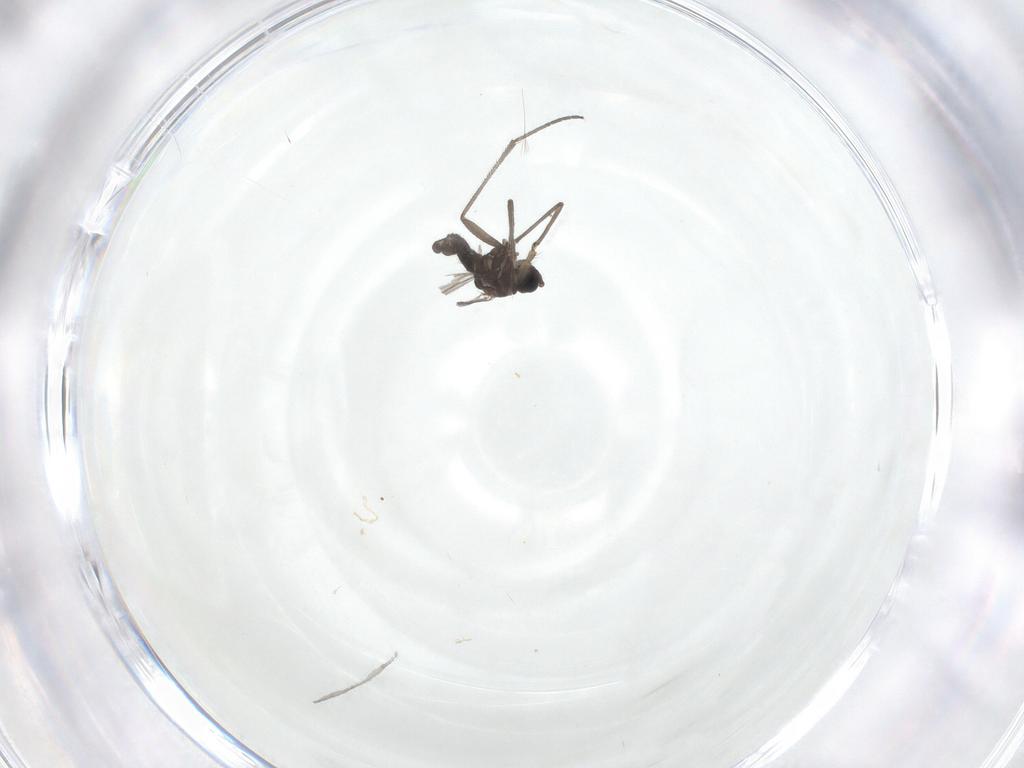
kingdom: Animalia
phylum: Arthropoda
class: Insecta
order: Diptera
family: Sciaridae
